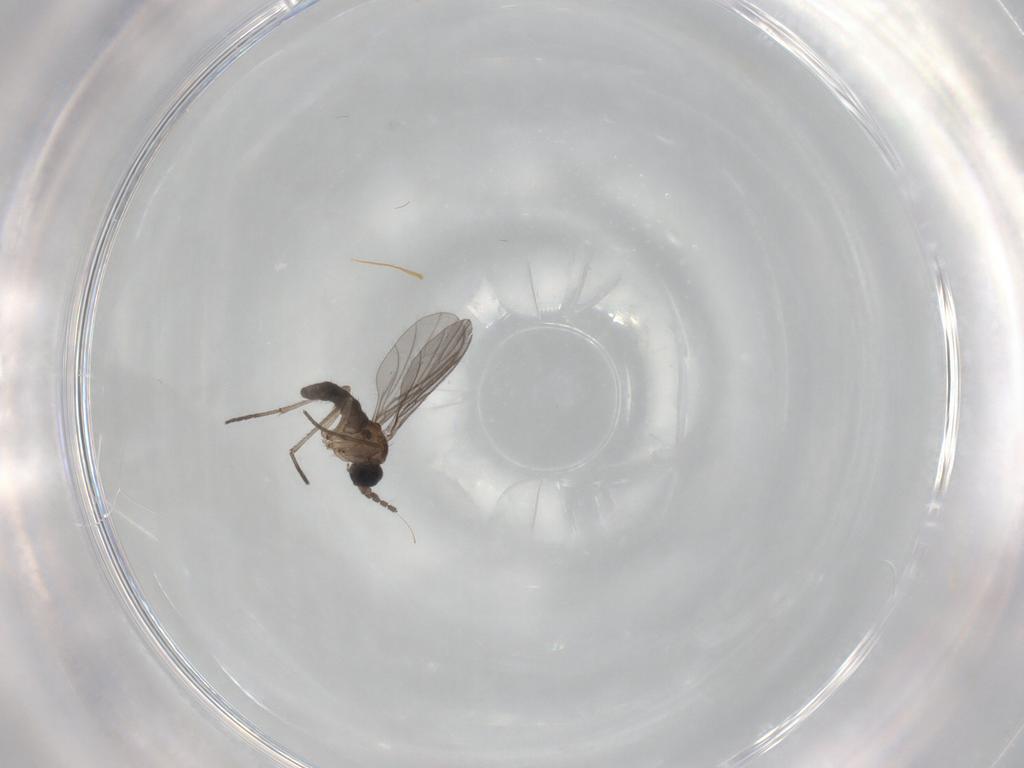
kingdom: Animalia
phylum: Arthropoda
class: Insecta
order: Diptera
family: Sciaridae
